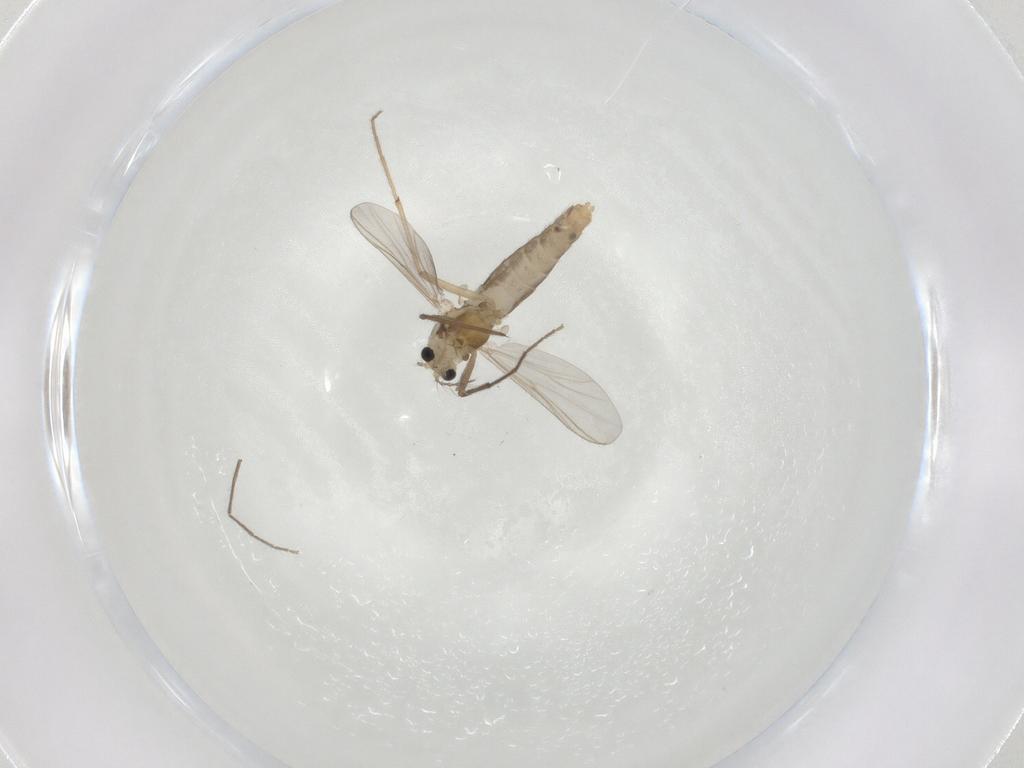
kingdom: Animalia
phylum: Arthropoda
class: Insecta
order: Diptera
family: Chironomidae
